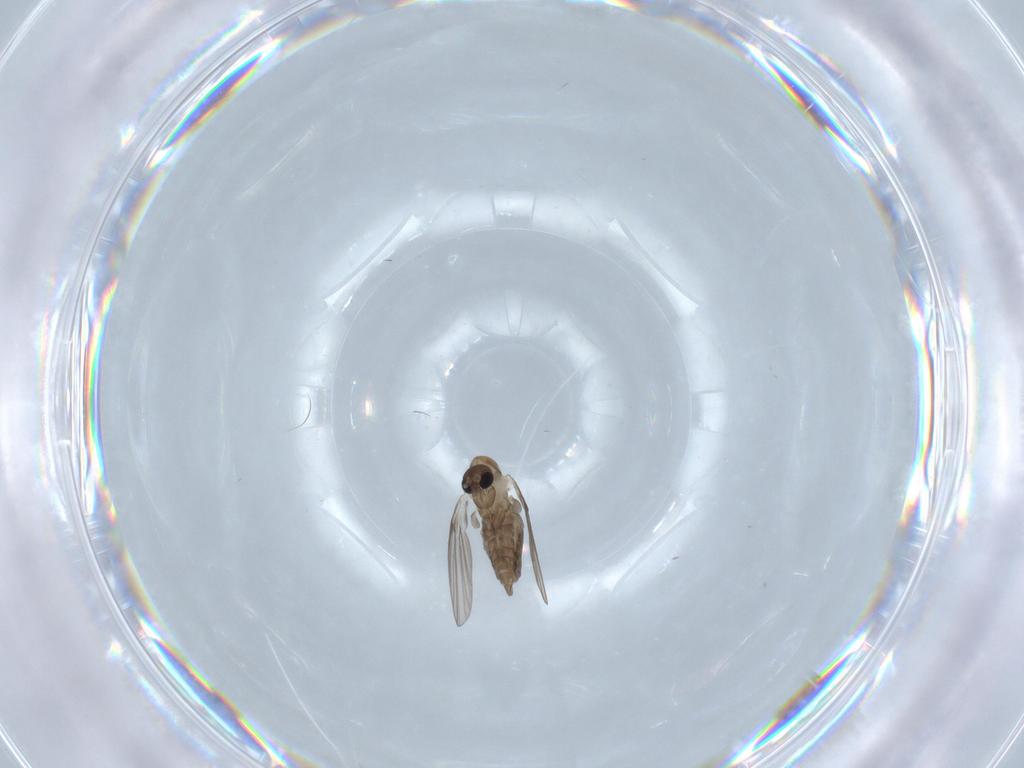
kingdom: Animalia
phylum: Arthropoda
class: Insecta
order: Diptera
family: Psychodidae
